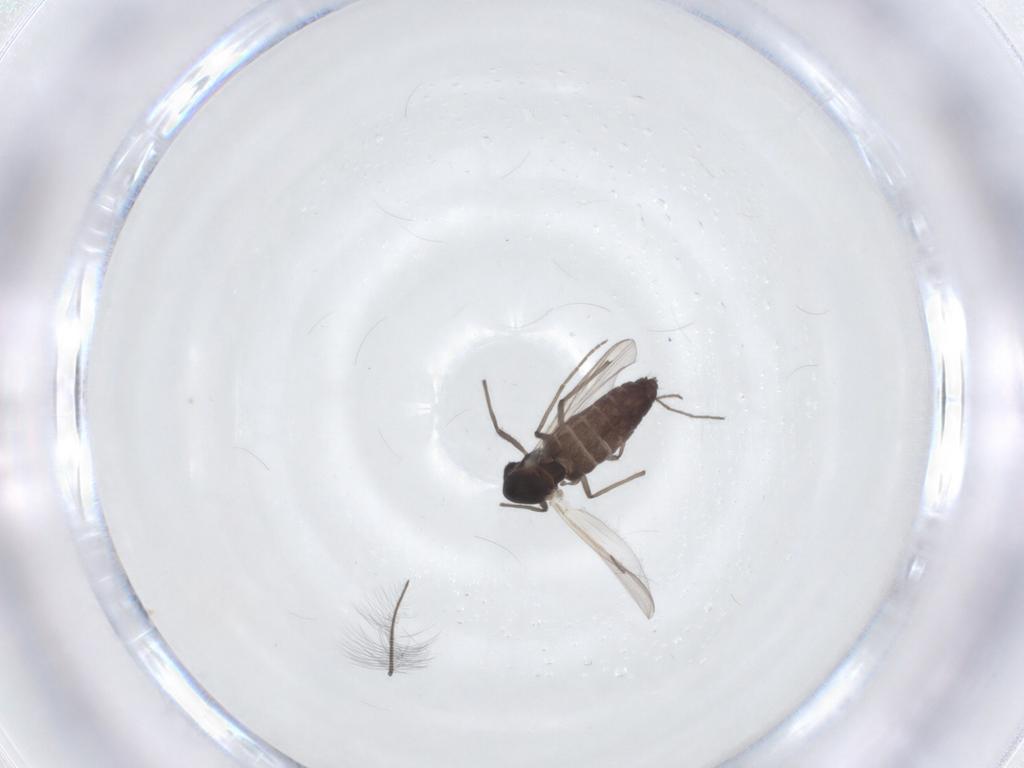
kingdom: Animalia
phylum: Arthropoda
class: Insecta
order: Diptera
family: Chironomidae
